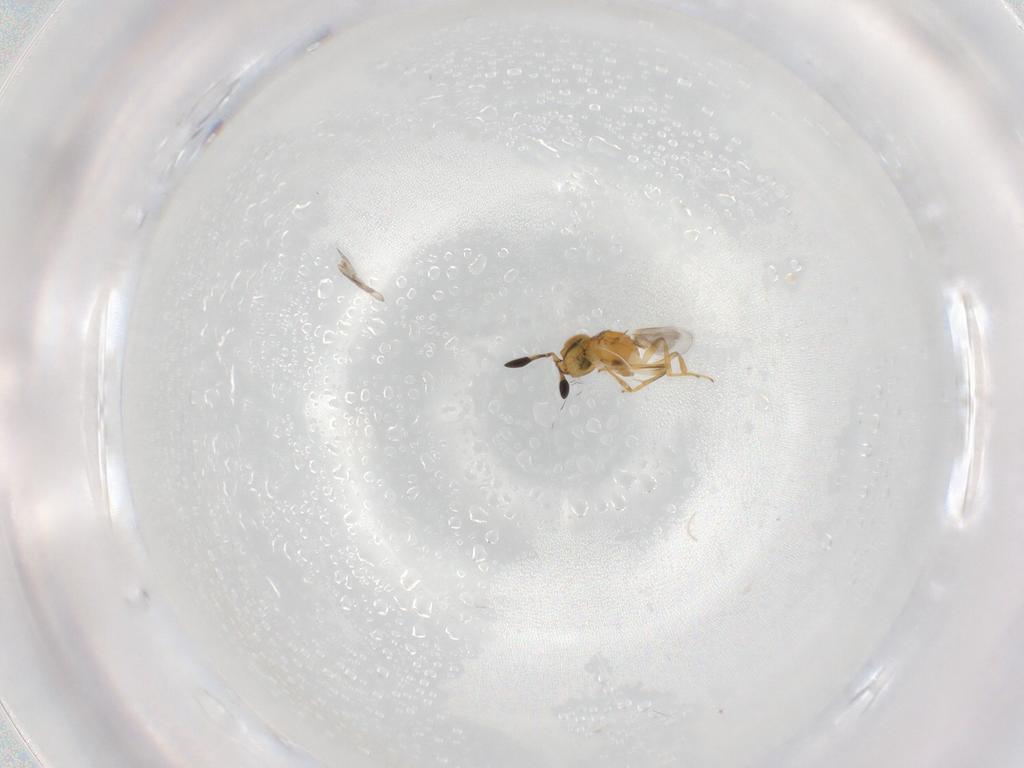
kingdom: Animalia
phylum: Arthropoda
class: Insecta
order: Hymenoptera
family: Encyrtidae
